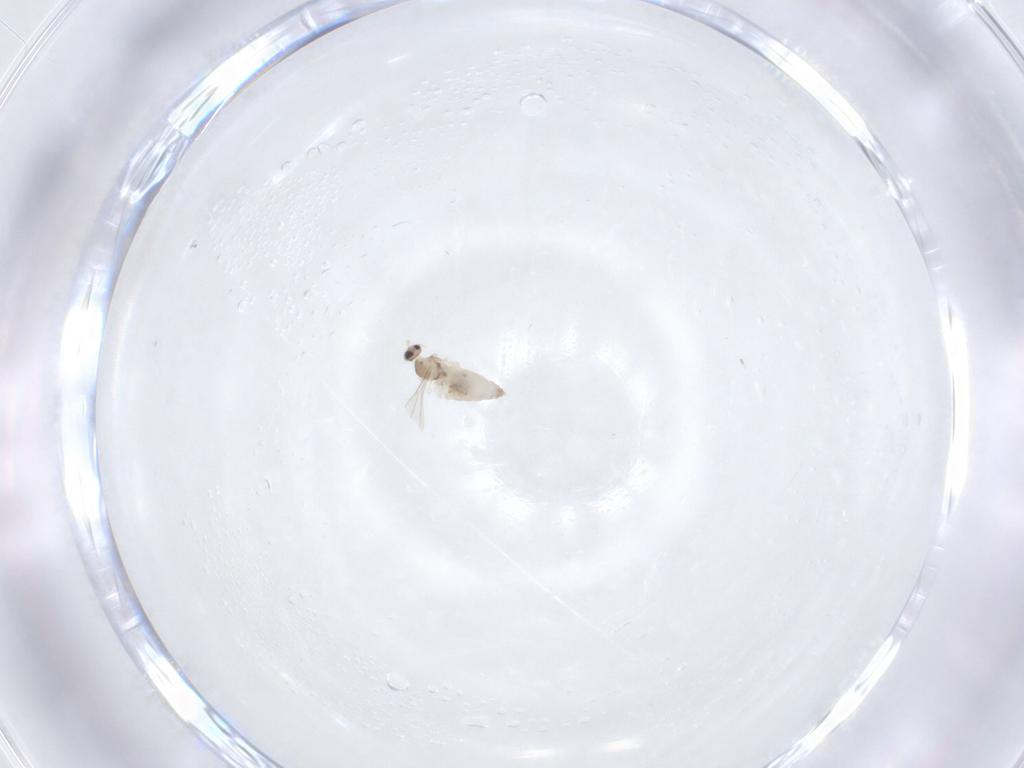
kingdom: Animalia
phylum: Arthropoda
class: Insecta
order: Diptera
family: Cecidomyiidae
